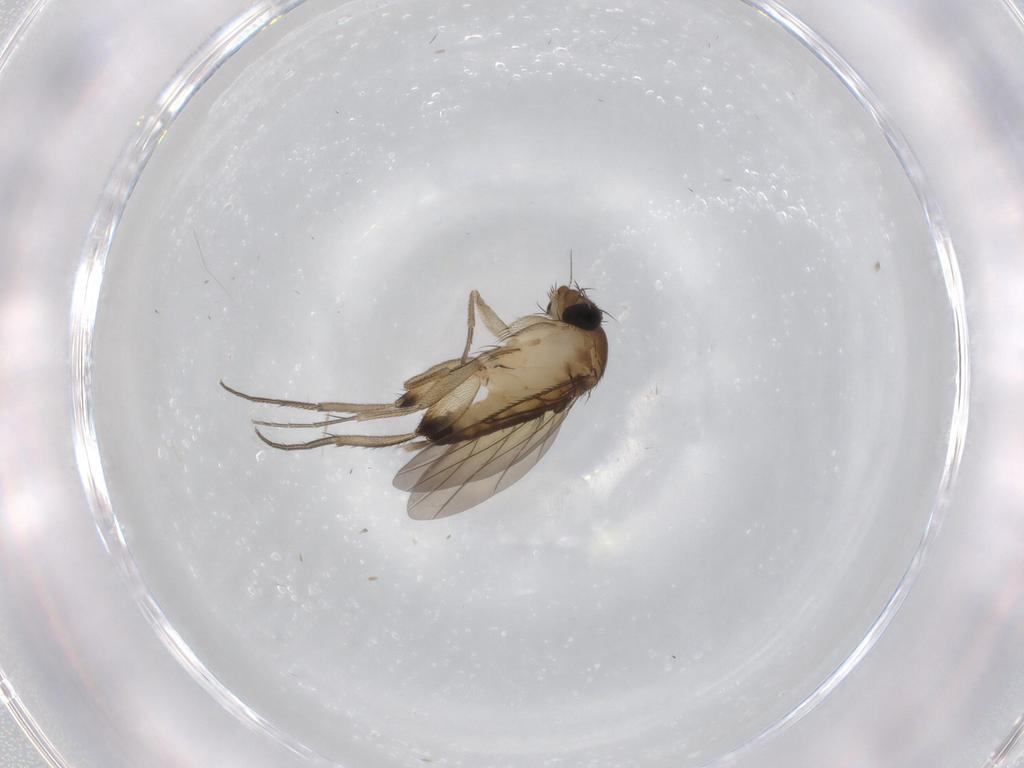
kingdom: Animalia
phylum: Arthropoda
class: Insecta
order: Diptera
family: Phoridae
